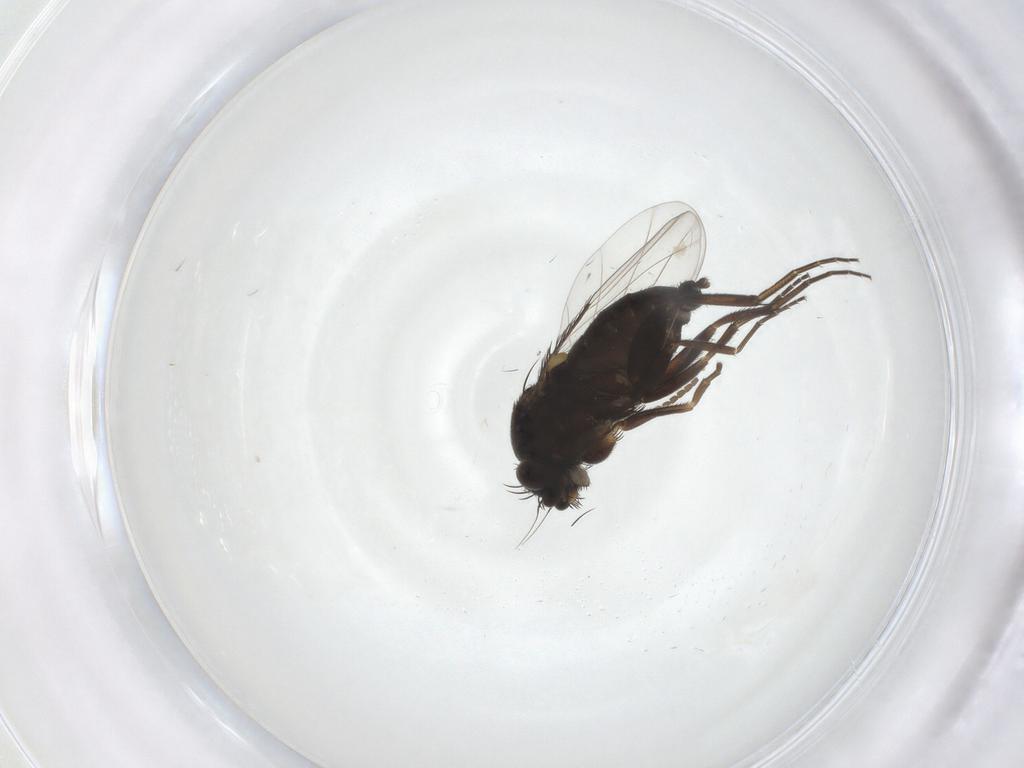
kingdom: Animalia
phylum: Arthropoda
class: Insecta
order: Diptera
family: Phoridae
